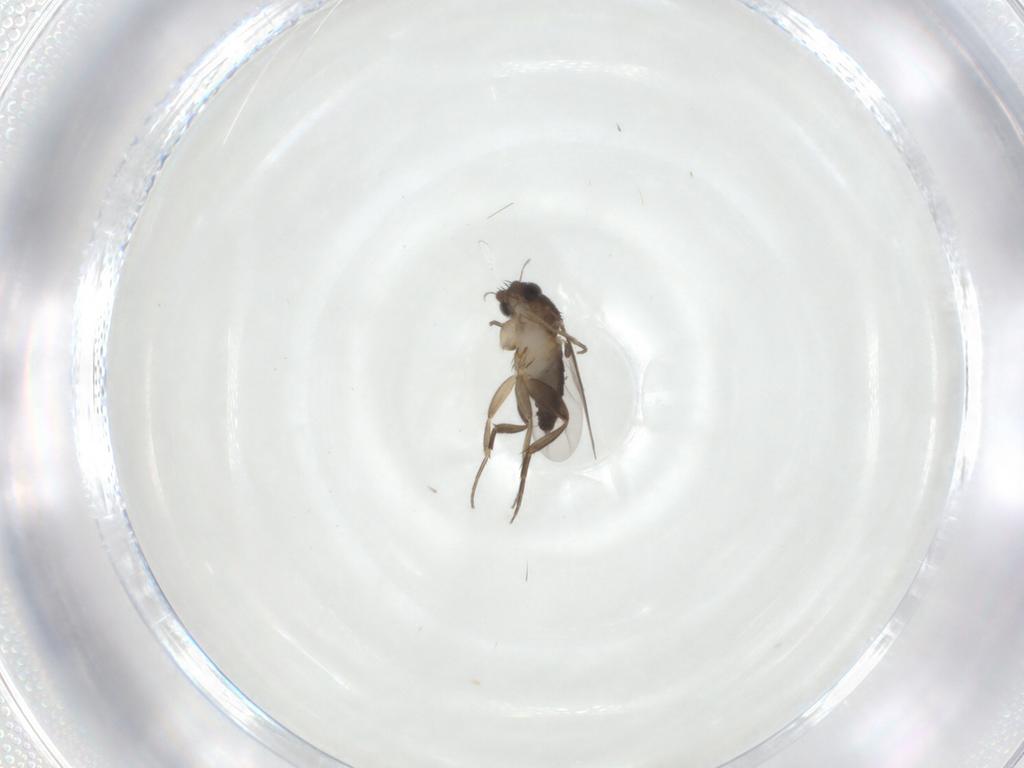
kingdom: Animalia
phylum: Arthropoda
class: Insecta
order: Diptera
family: Phoridae
